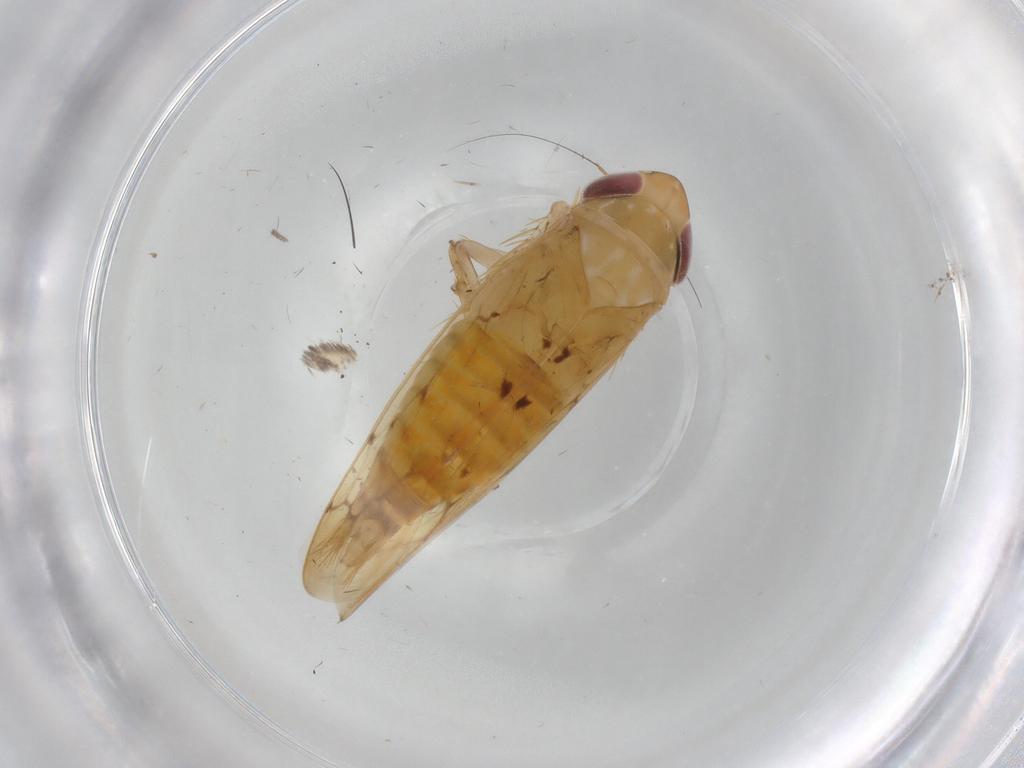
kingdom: Animalia
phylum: Arthropoda
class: Insecta
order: Hemiptera
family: Cicadellidae
